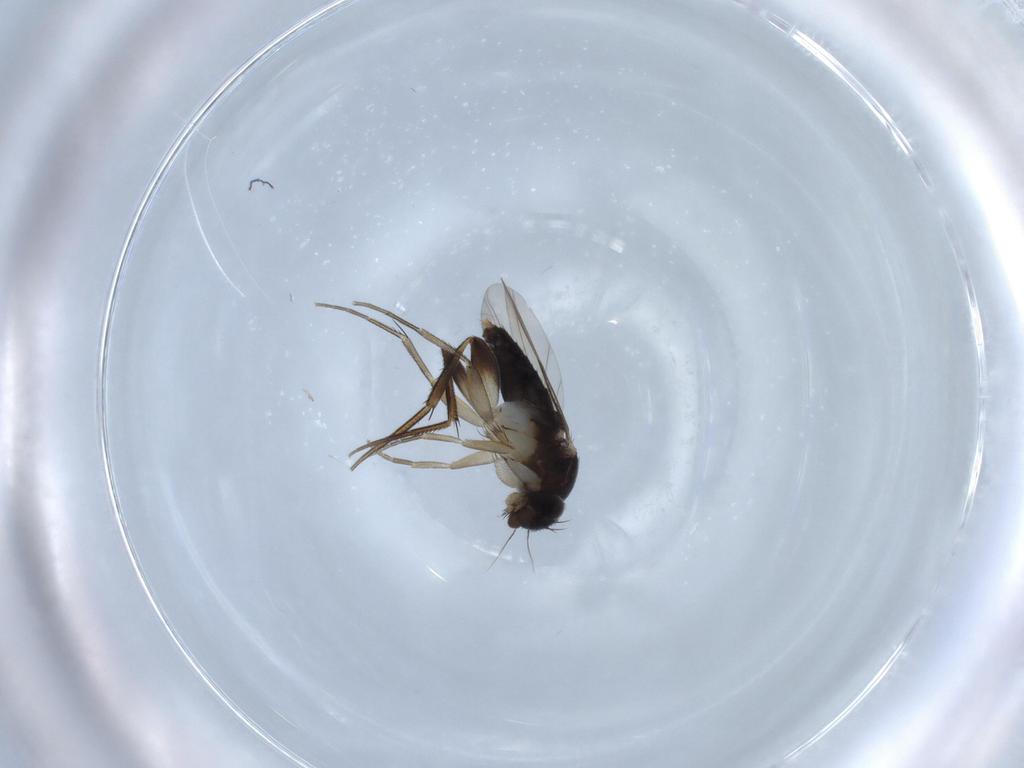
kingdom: Animalia
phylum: Arthropoda
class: Insecta
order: Diptera
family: Phoridae
